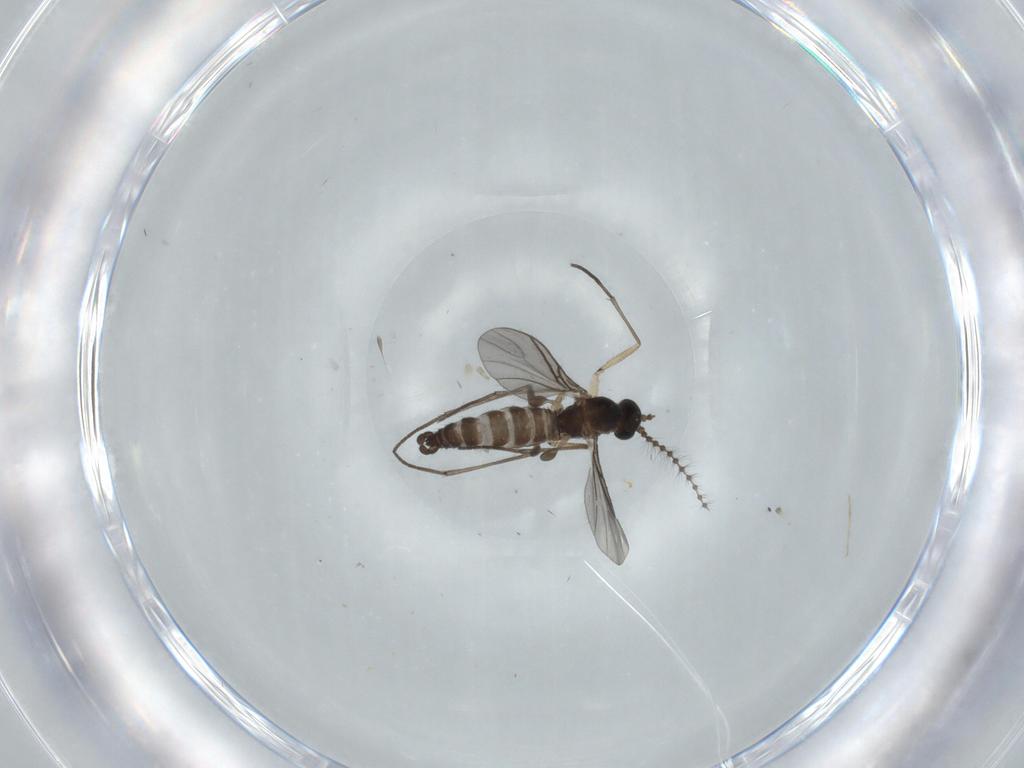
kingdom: Animalia
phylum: Arthropoda
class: Insecta
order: Diptera
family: Sciaridae
